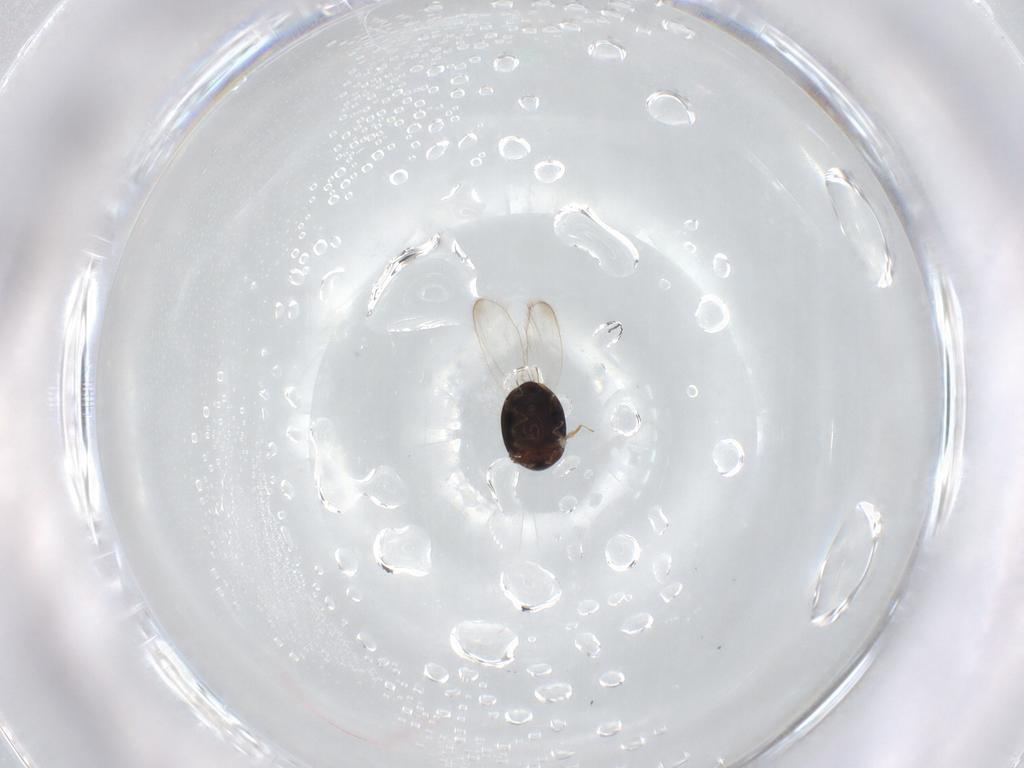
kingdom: Animalia
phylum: Arthropoda
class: Insecta
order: Coleoptera
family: Corylophidae
